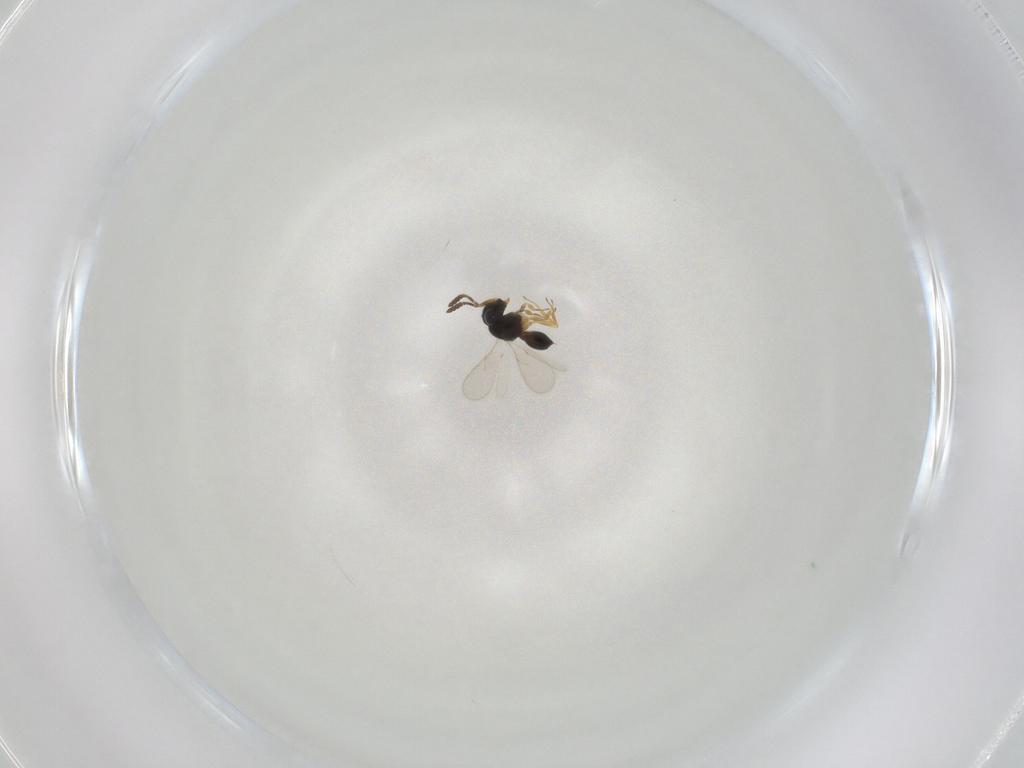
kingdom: Animalia
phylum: Arthropoda
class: Insecta
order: Hymenoptera
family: Scelionidae
